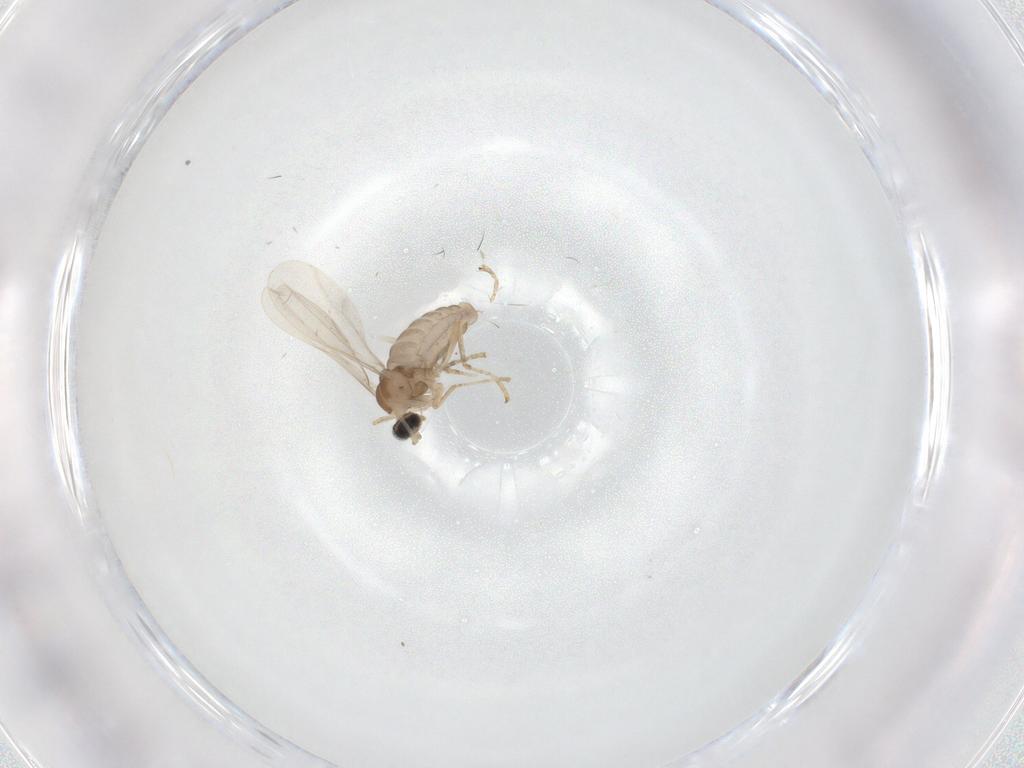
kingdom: Animalia
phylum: Arthropoda
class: Insecta
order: Diptera
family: Cecidomyiidae
